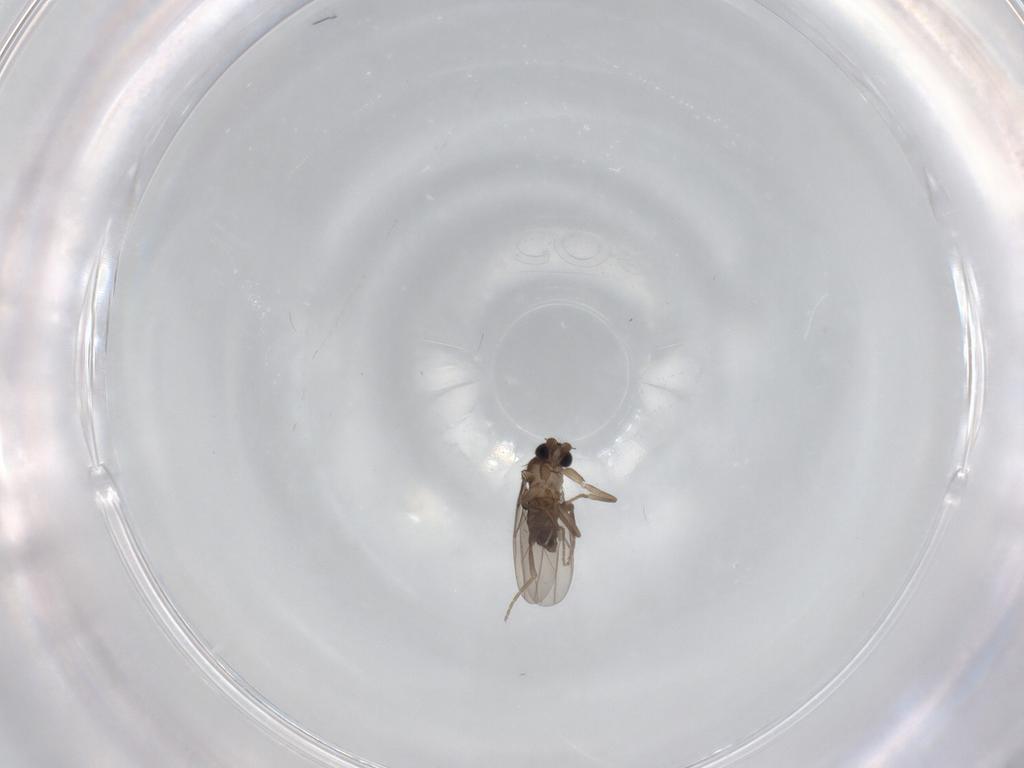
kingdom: Animalia
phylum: Arthropoda
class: Insecta
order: Diptera
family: Phoridae
